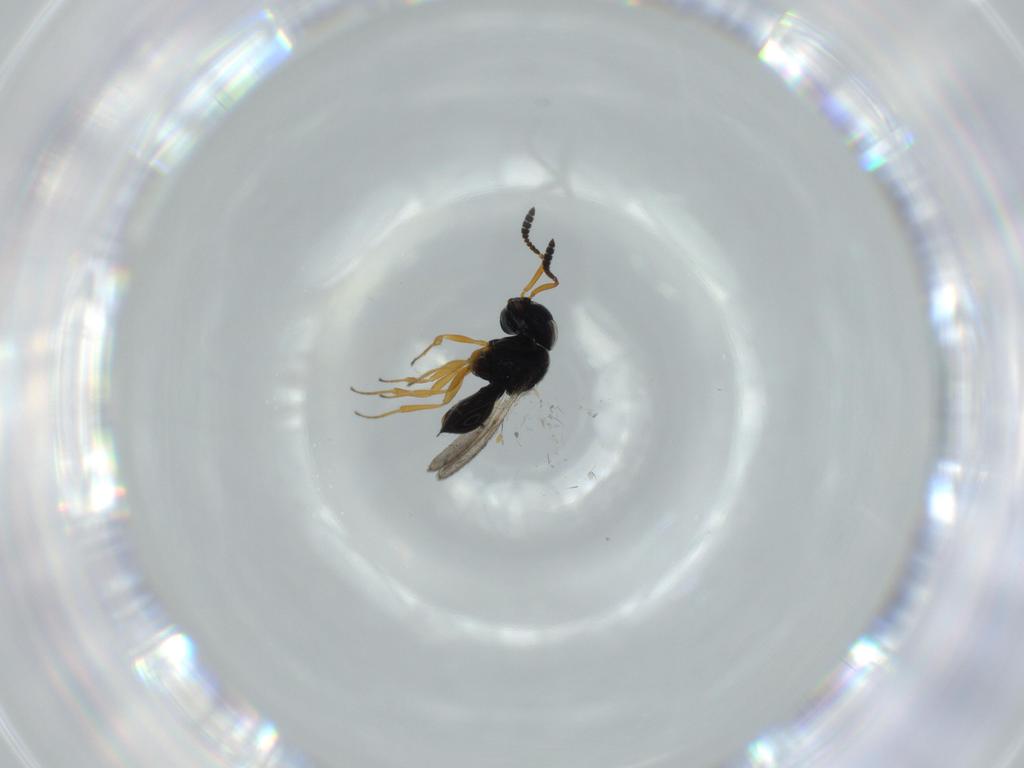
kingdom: Animalia
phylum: Arthropoda
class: Insecta
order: Hymenoptera
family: Scelionidae
